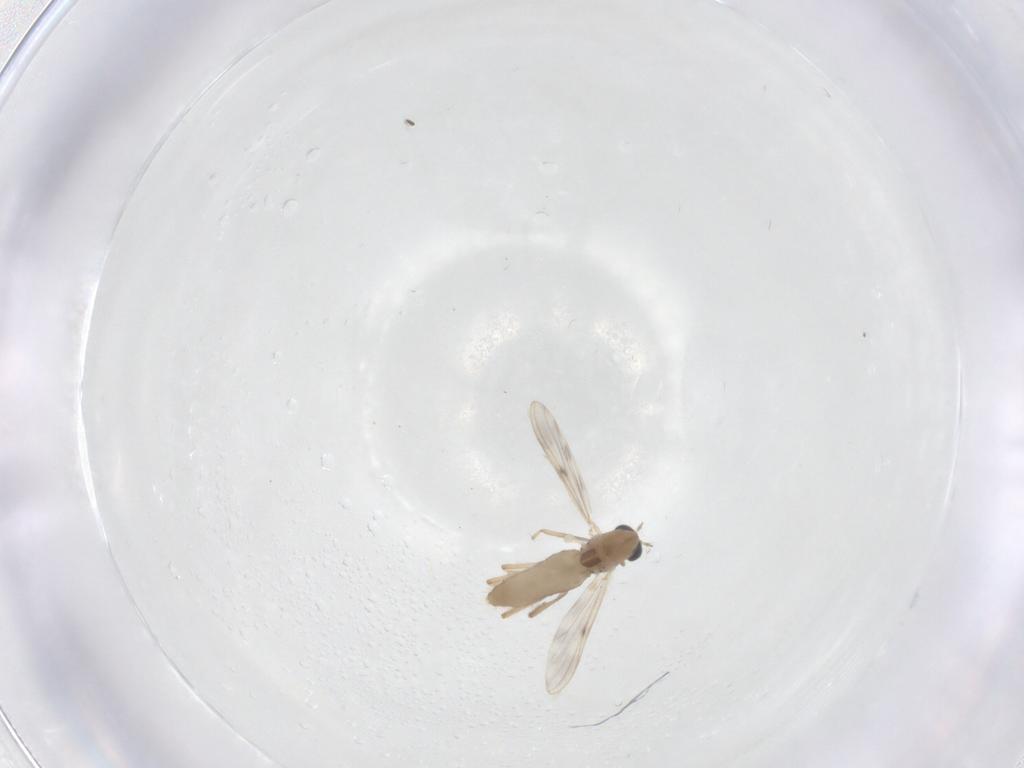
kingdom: Animalia
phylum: Arthropoda
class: Insecta
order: Diptera
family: Chironomidae
